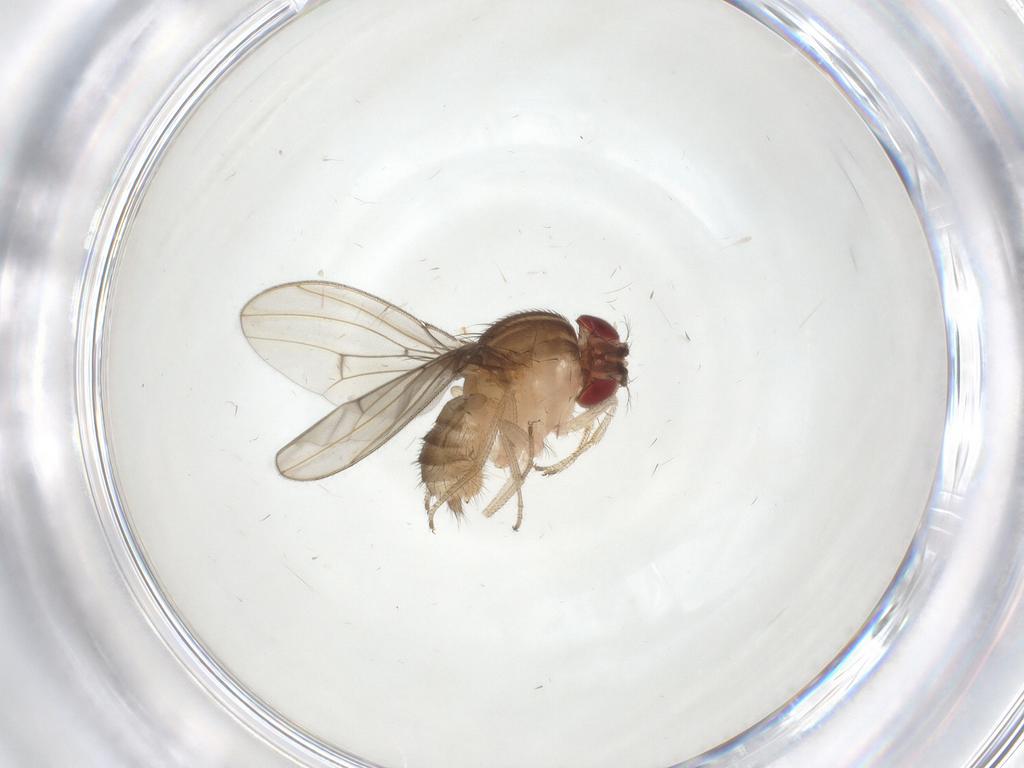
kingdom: Animalia
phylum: Arthropoda
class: Insecta
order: Diptera
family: Drosophilidae
